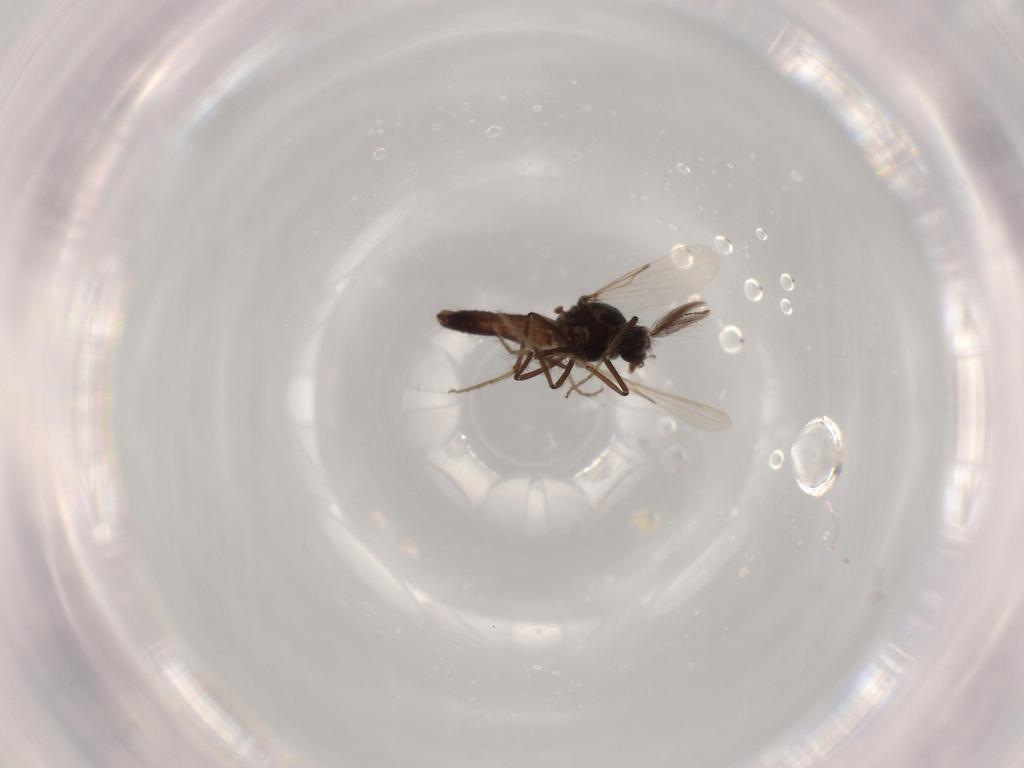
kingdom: Animalia
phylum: Arthropoda
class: Insecta
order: Diptera
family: Chironomidae
